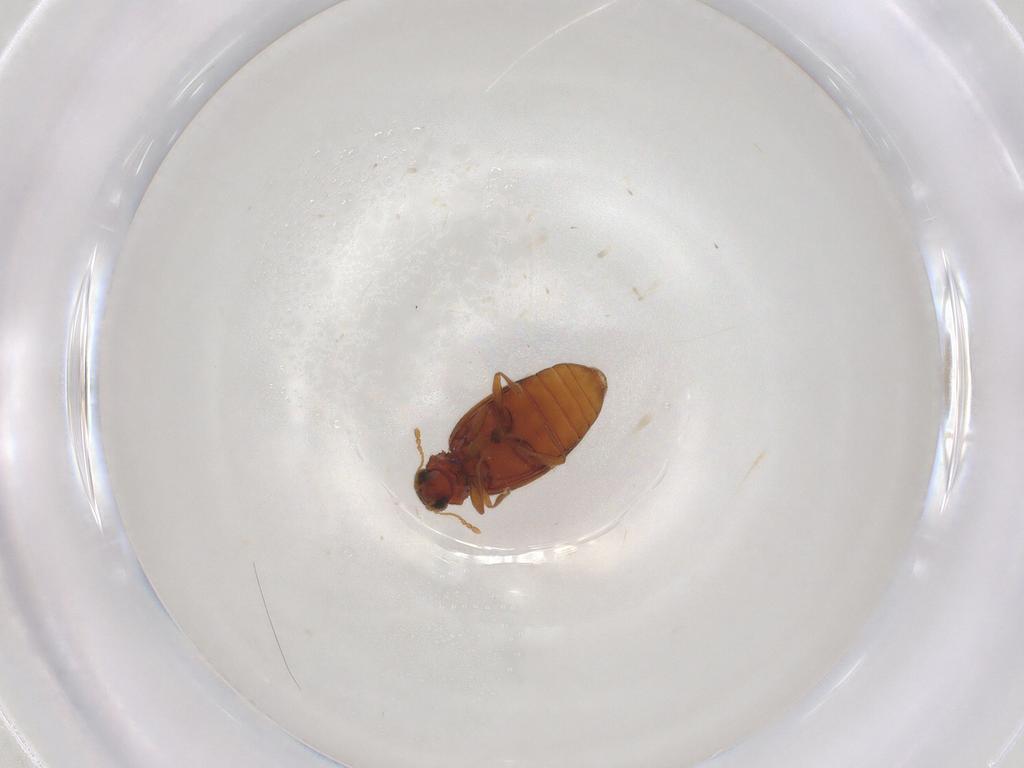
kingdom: Animalia
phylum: Arthropoda
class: Insecta
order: Coleoptera
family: Latridiidae
